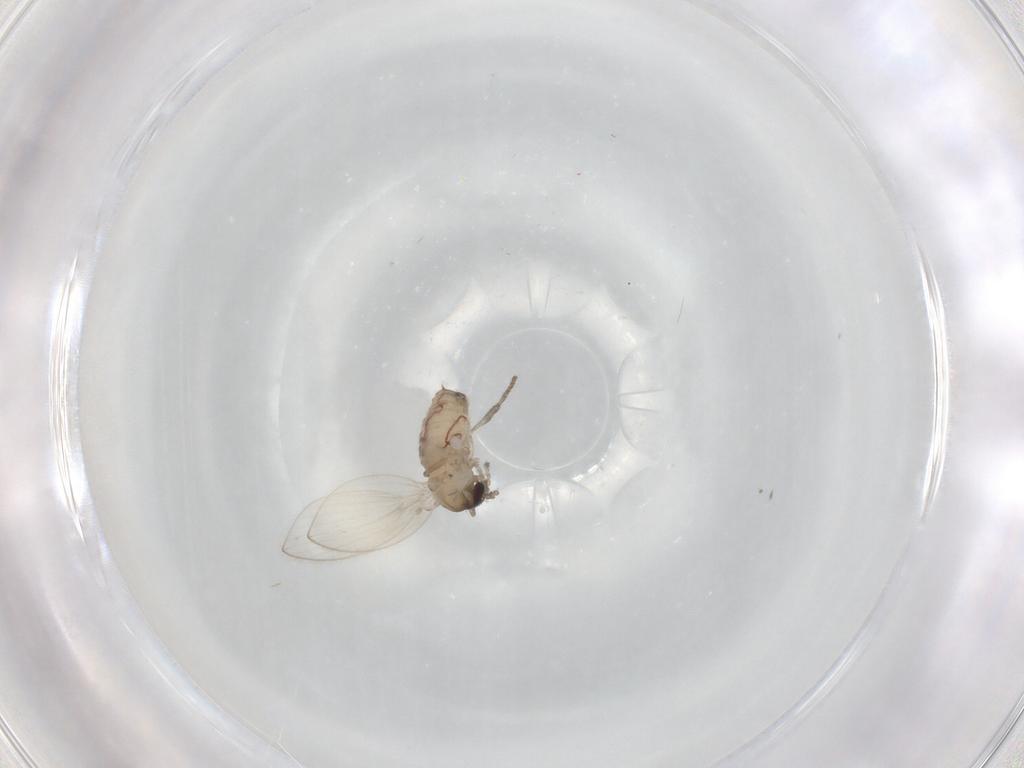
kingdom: Animalia
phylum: Arthropoda
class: Insecta
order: Diptera
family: Psychodidae
